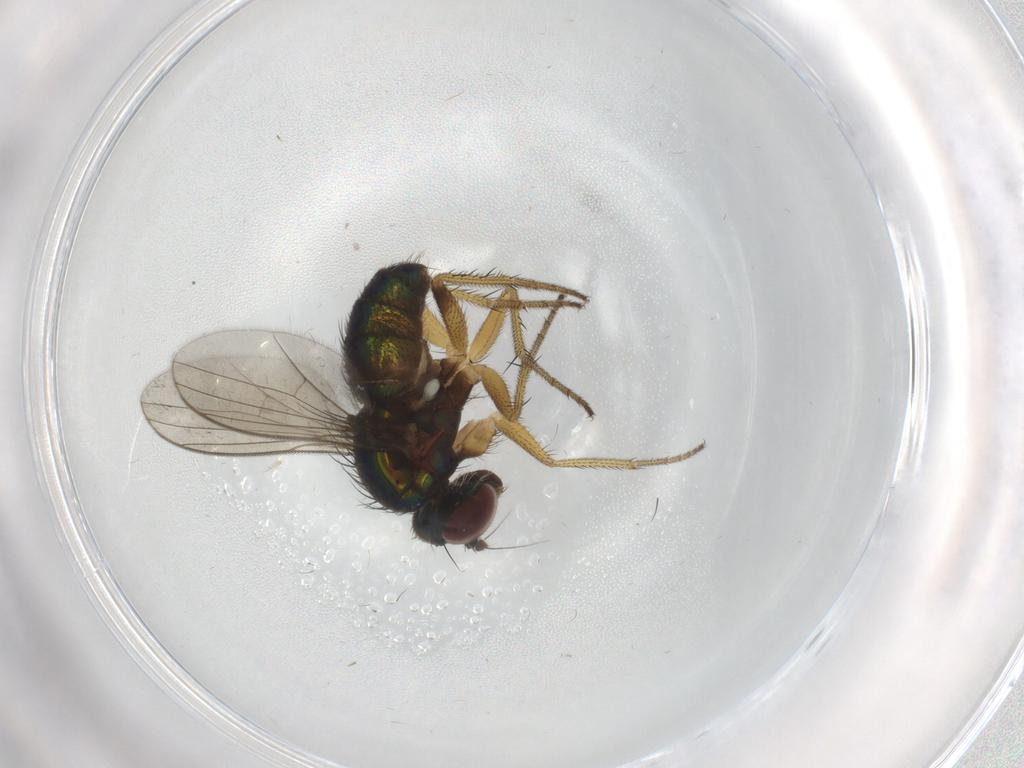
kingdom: Animalia
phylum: Arthropoda
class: Insecta
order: Diptera
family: Dolichopodidae
